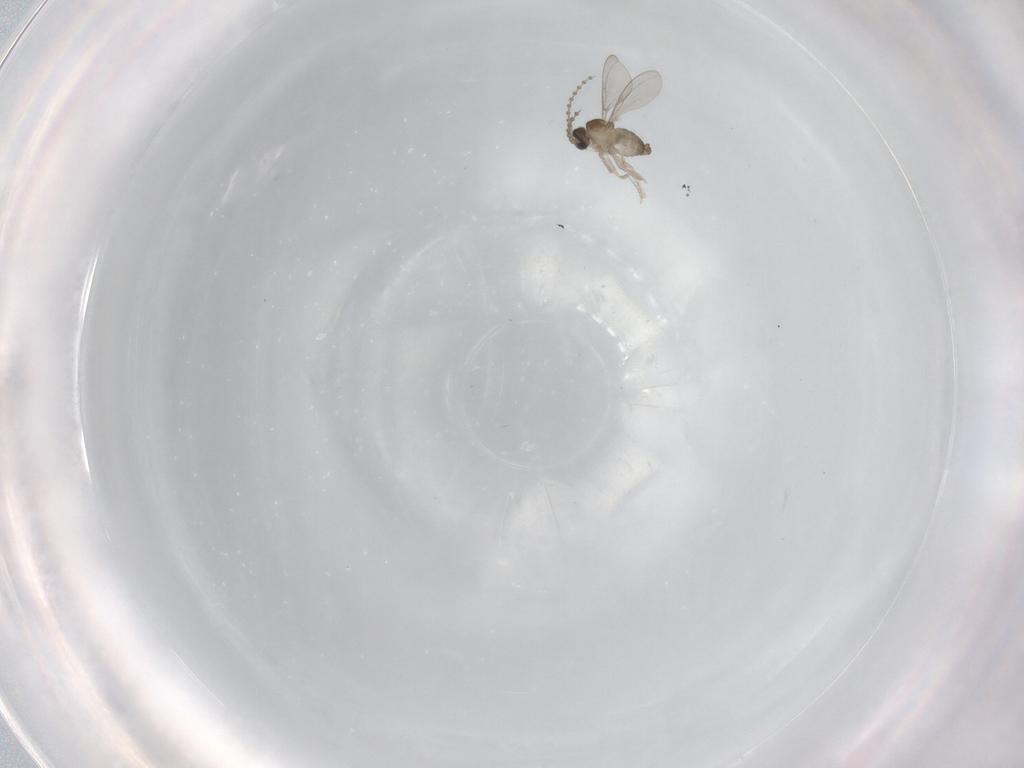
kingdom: Animalia
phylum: Arthropoda
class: Insecta
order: Diptera
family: Cecidomyiidae
